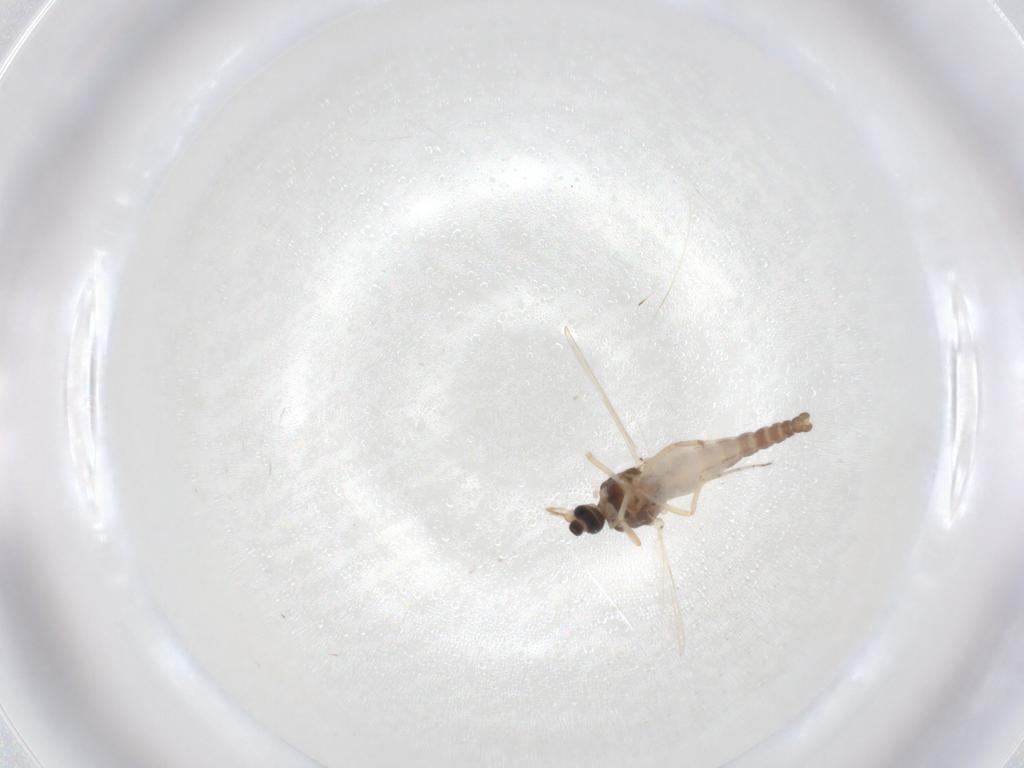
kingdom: Animalia
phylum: Arthropoda
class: Insecta
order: Diptera
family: Ceratopogonidae
